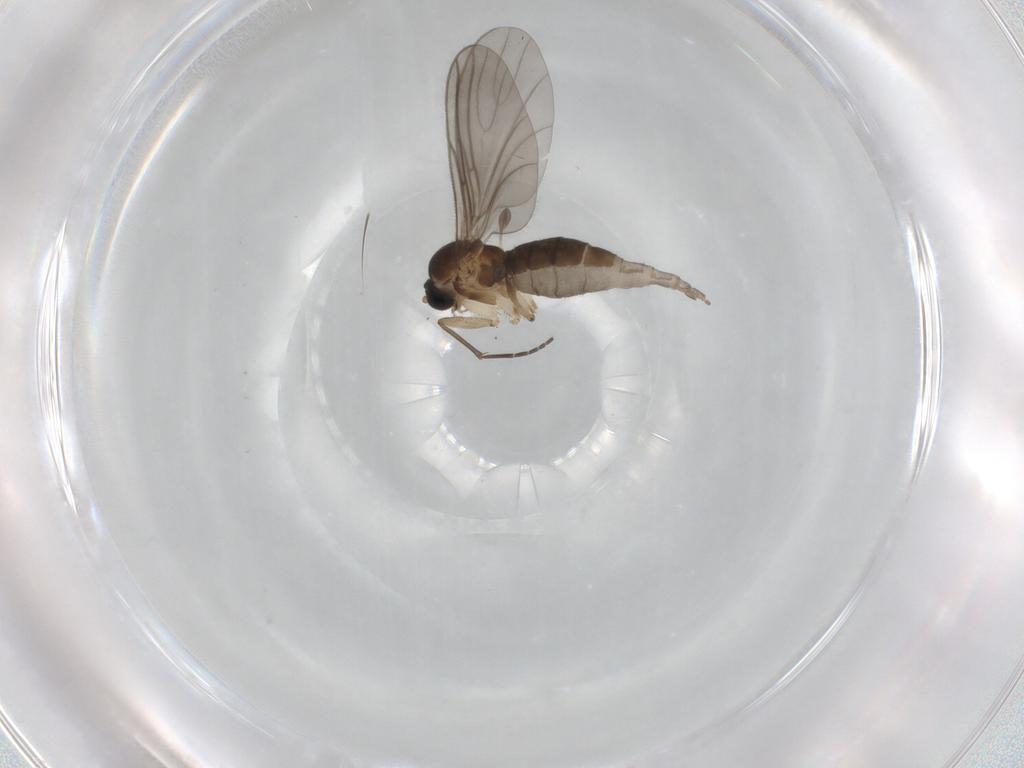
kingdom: Animalia
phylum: Arthropoda
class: Insecta
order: Diptera
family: Sciaridae
